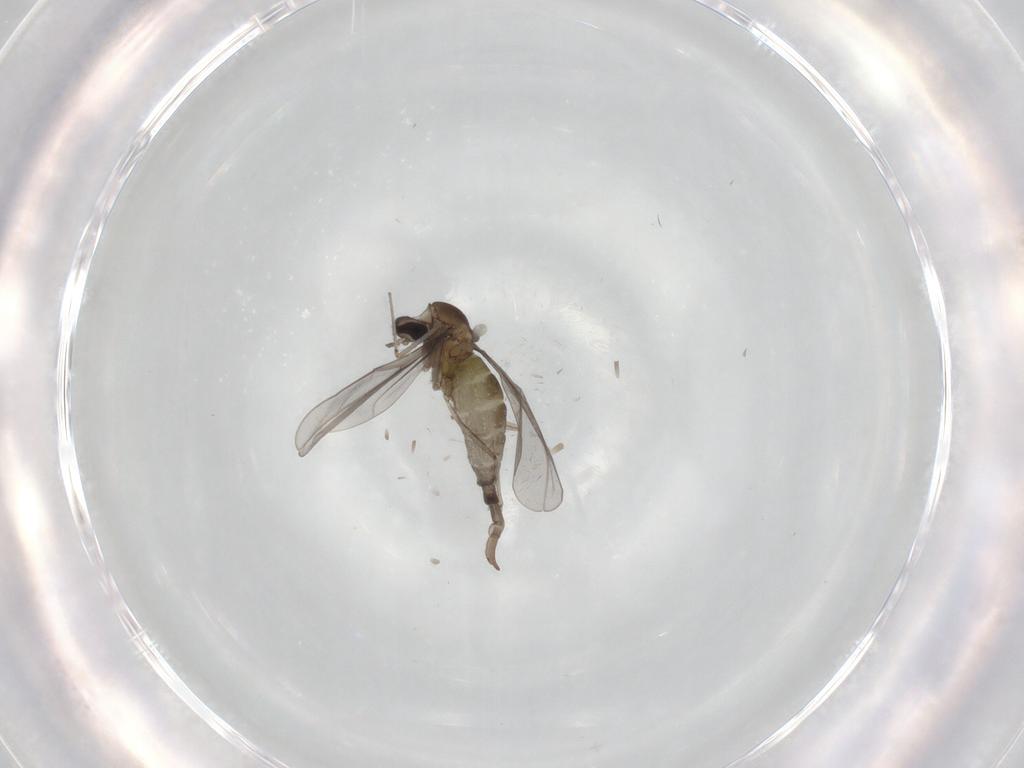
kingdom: Animalia
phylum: Arthropoda
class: Insecta
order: Diptera
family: Cecidomyiidae
